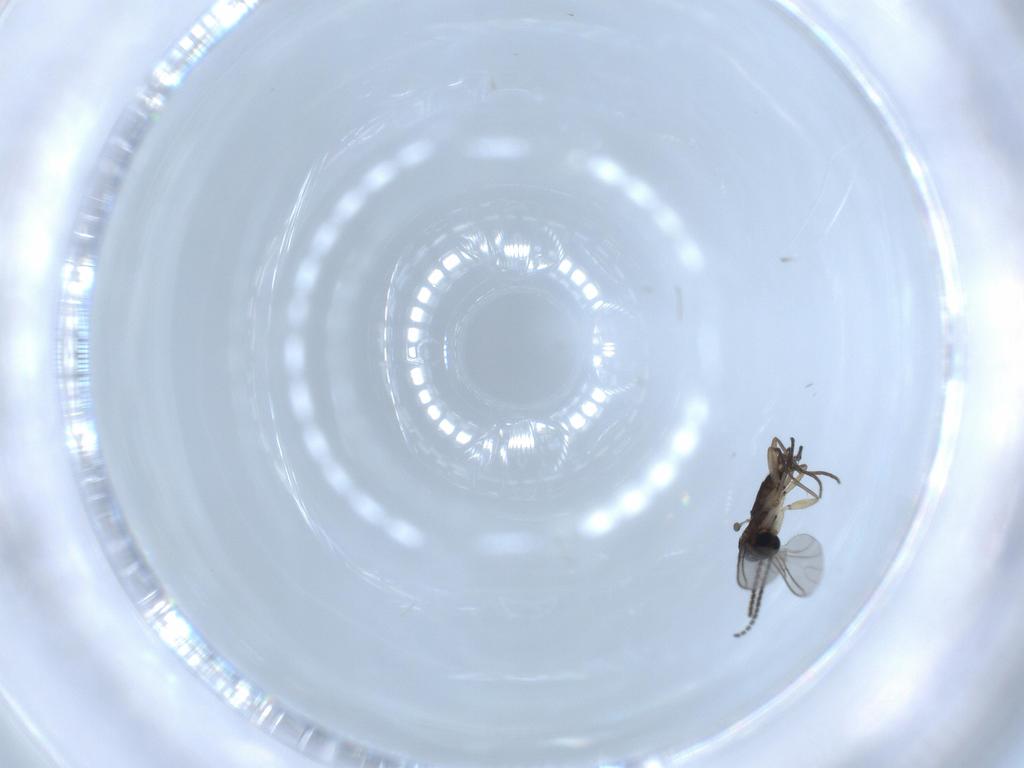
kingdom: Animalia
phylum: Arthropoda
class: Insecta
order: Diptera
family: Sciaridae
